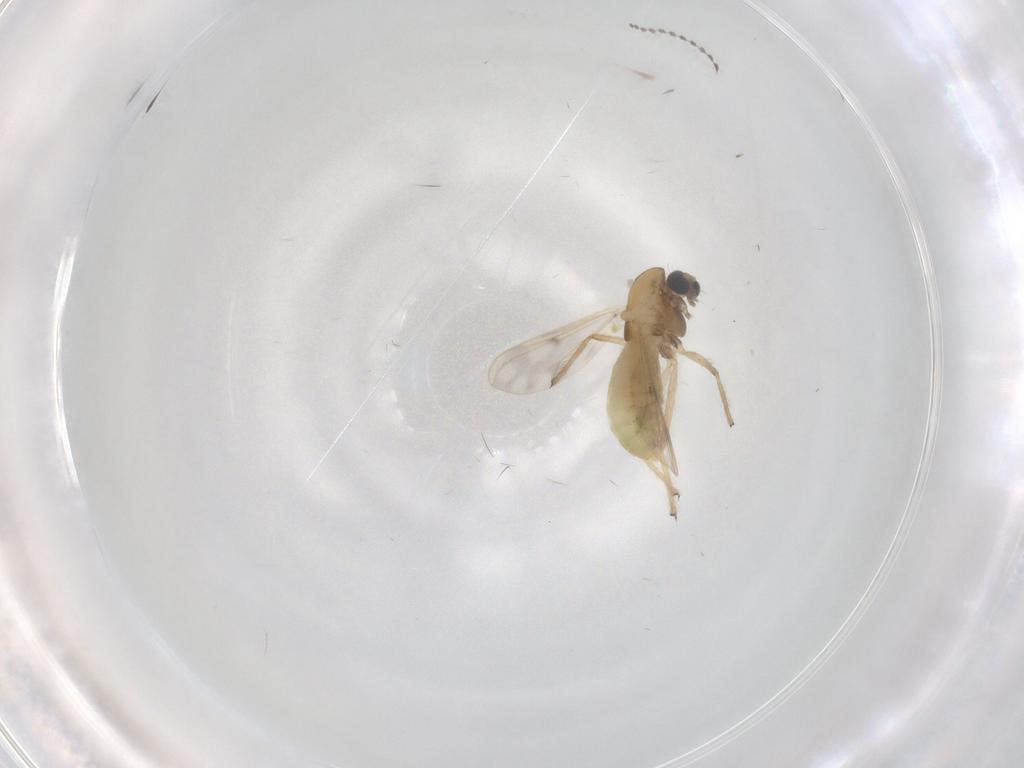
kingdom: Animalia
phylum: Arthropoda
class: Insecta
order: Diptera
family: Chironomidae
